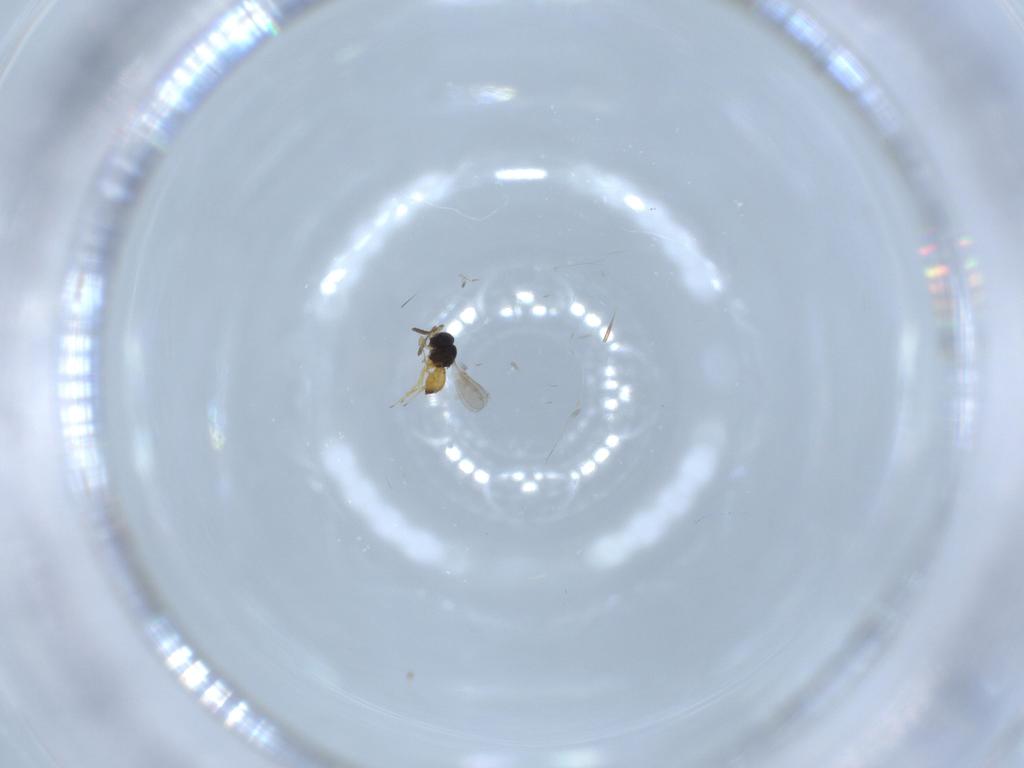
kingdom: Animalia
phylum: Arthropoda
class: Insecta
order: Hymenoptera
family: Scelionidae
